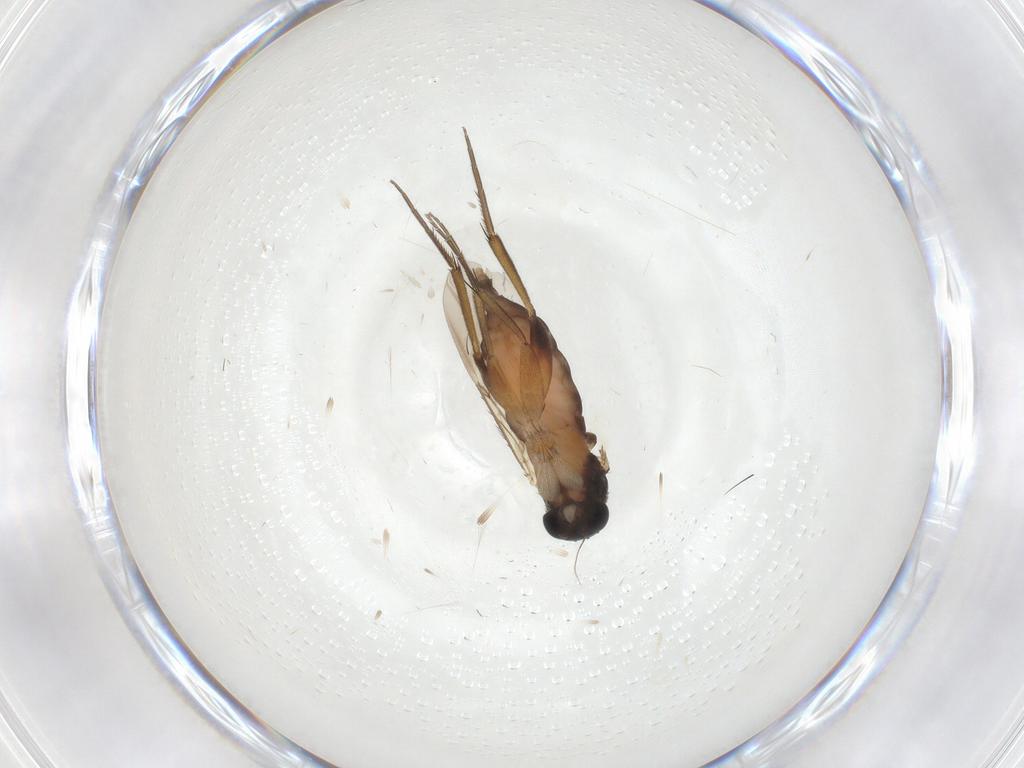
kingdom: Animalia
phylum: Arthropoda
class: Insecta
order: Diptera
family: Phoridae
